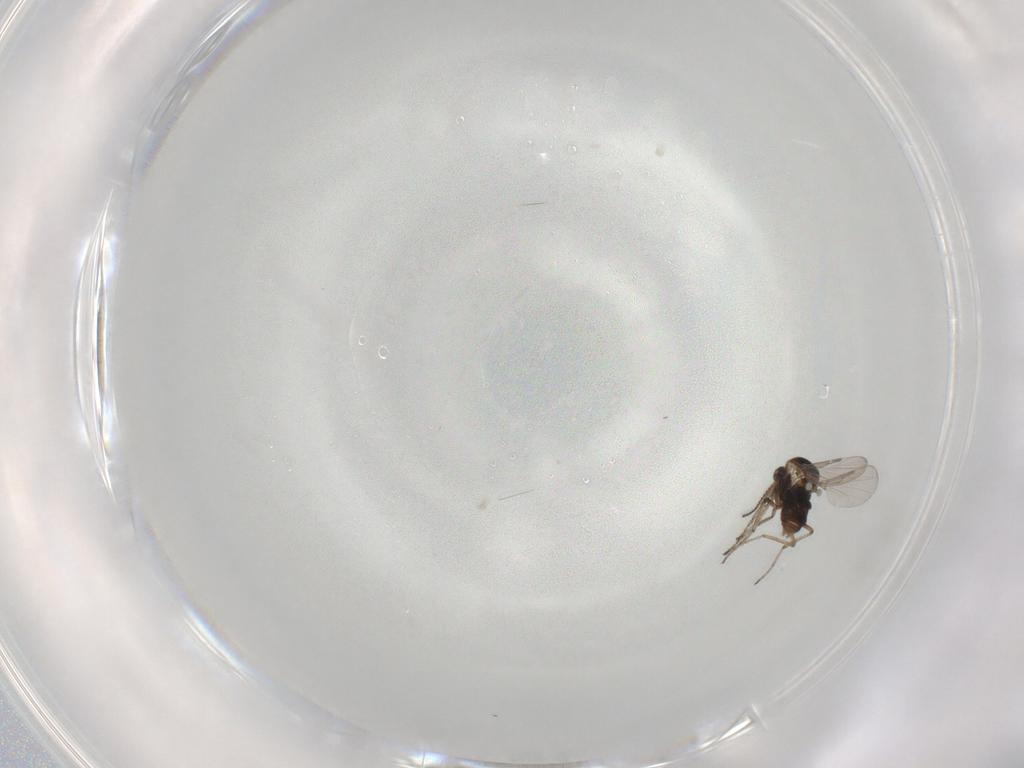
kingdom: Animalia
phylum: Arthropoda
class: Insecta
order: Diptera
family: Ceratopogonidae
